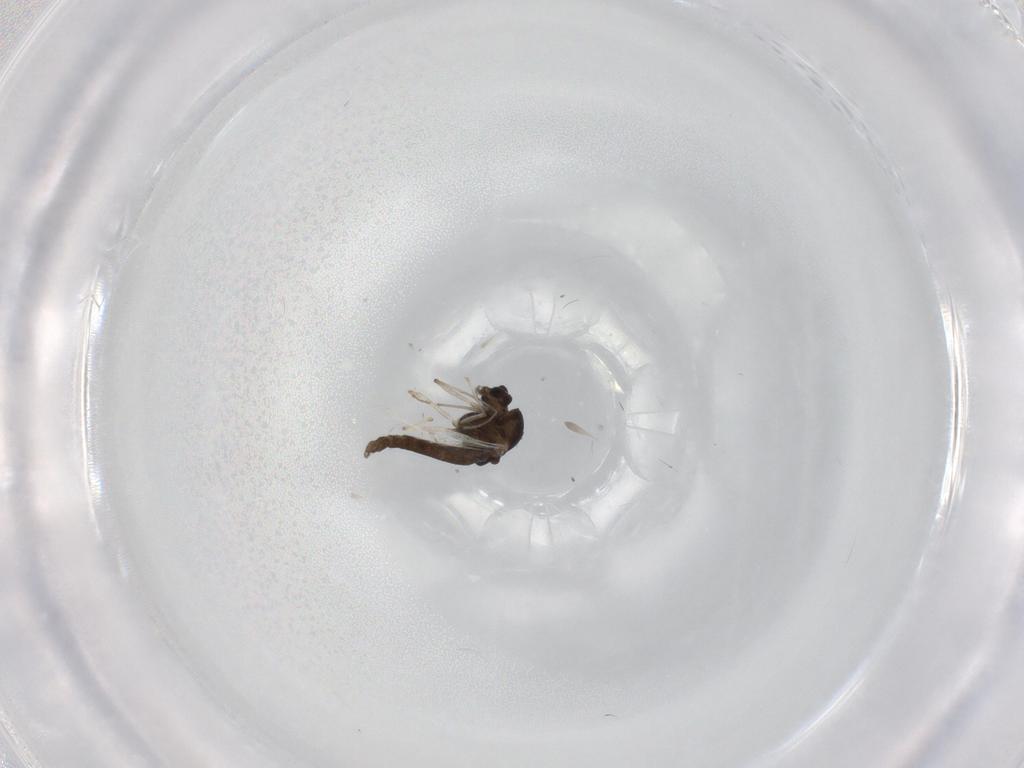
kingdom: Animalia
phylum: Arthropoda
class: Insecta
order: Diptera
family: Chironomidae
